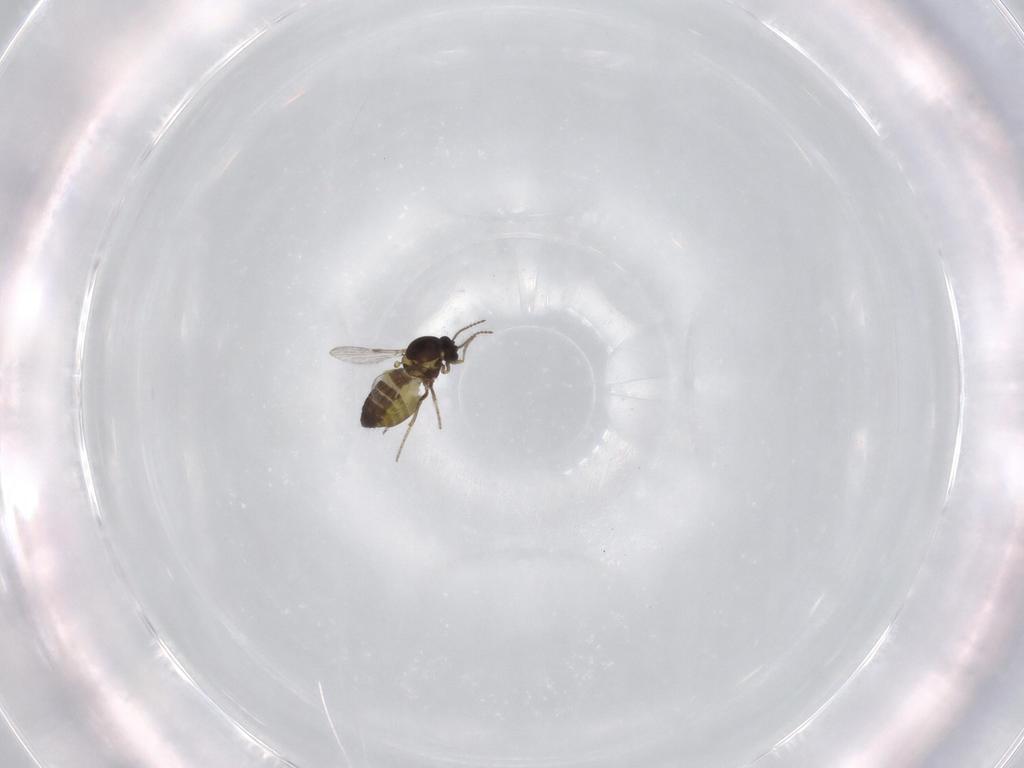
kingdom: Animalia
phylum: Arthropoda
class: Insecta
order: Diptera
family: Ceratopogonidae
